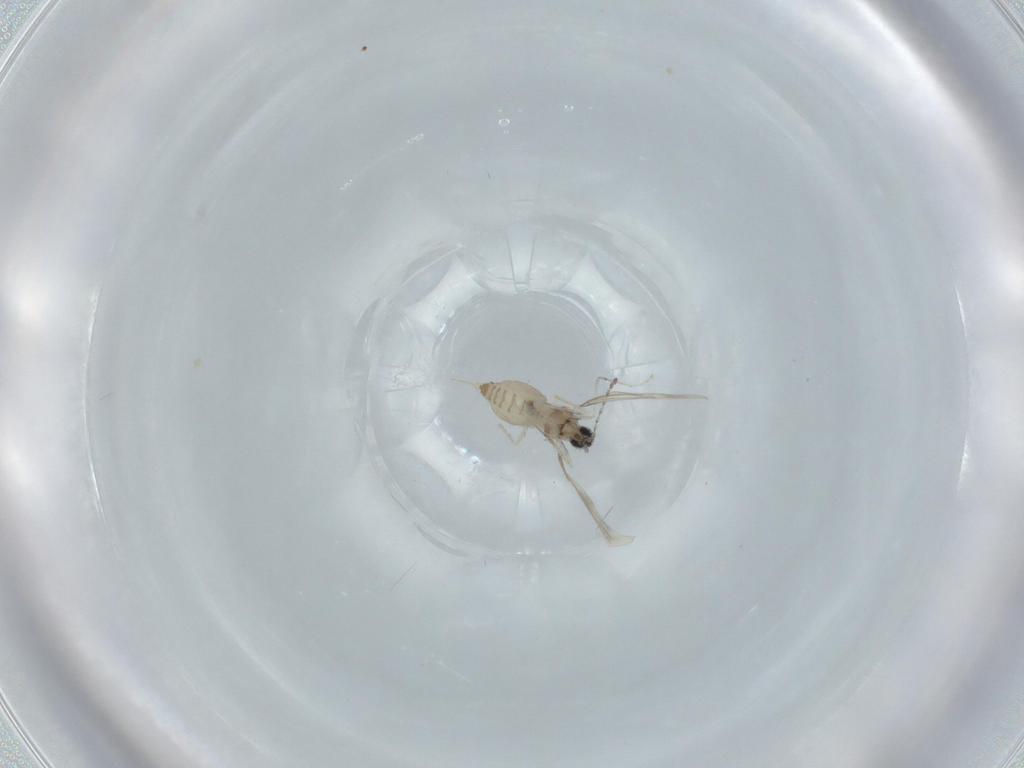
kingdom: Animalia
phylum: Arthropoda
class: Insecta
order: Diptera
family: Cecidomyiidae
